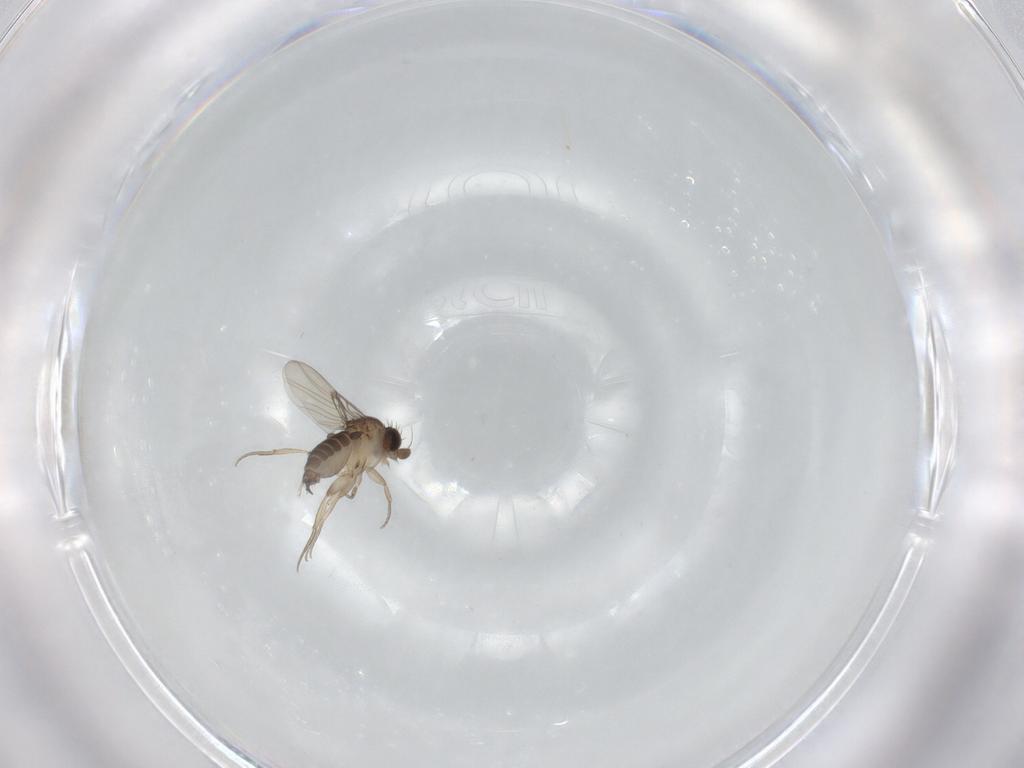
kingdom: Animalia
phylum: Arthropoda
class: Insecta
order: Diptera
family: Phoridae
